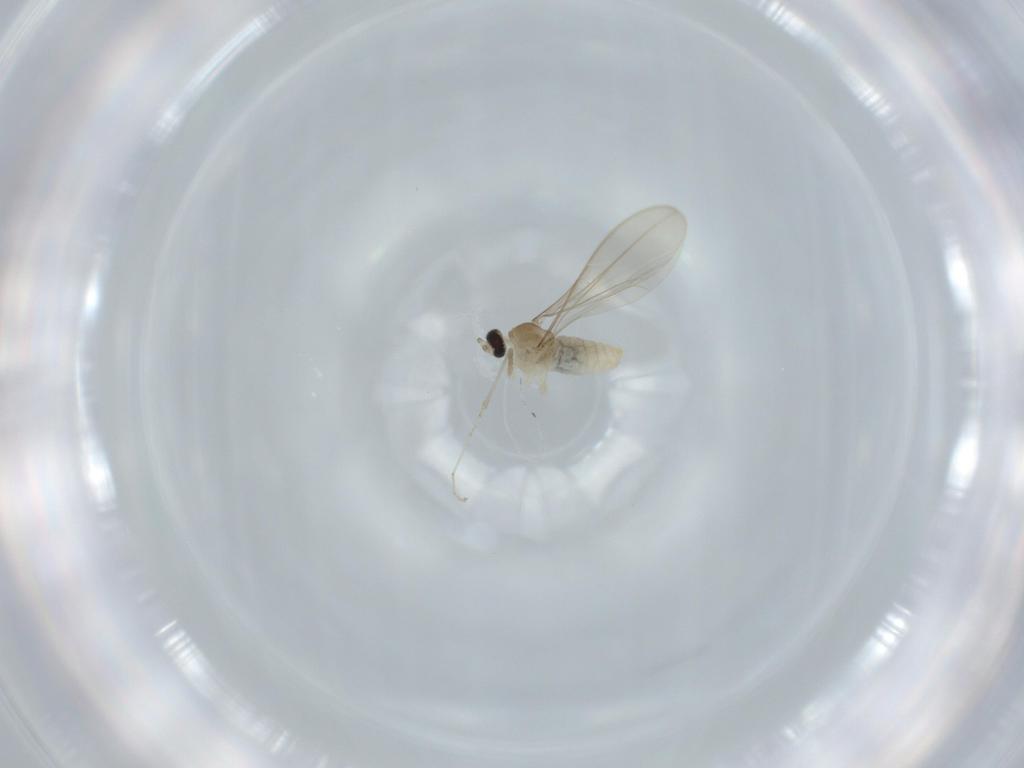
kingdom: Animalia
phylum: Arthropoda
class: Insecta
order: Diptera
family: Cecidomyiidae
